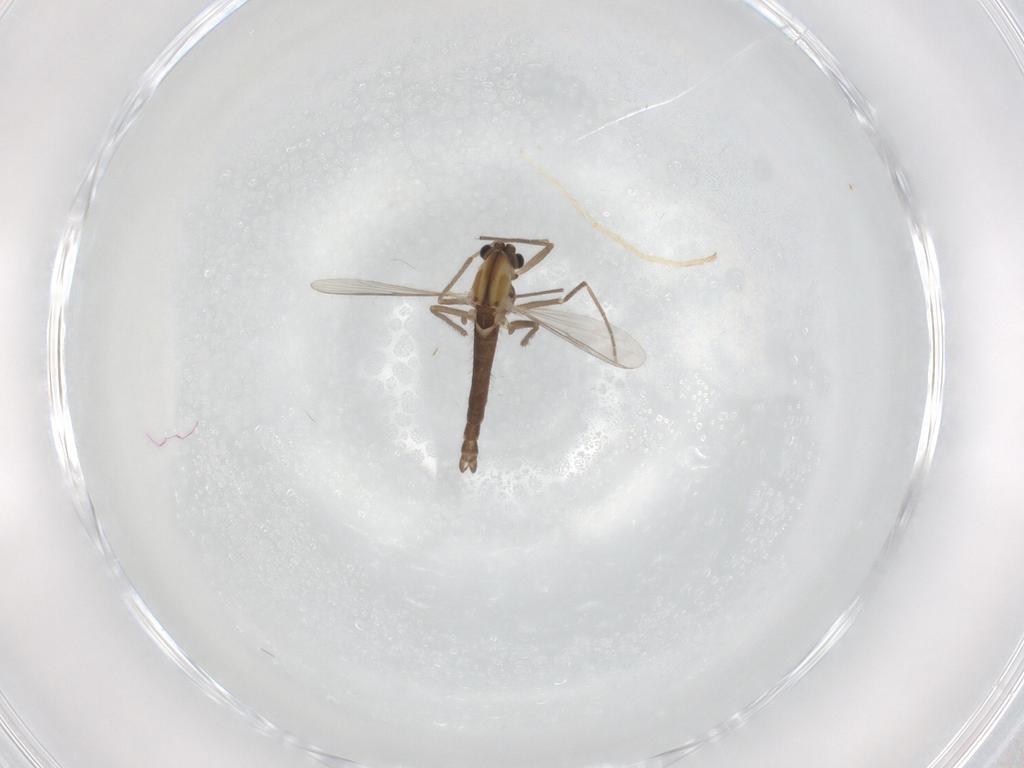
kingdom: Animalia
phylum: Arthropoda
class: Insecta
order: Diptera
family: Chironomidae
